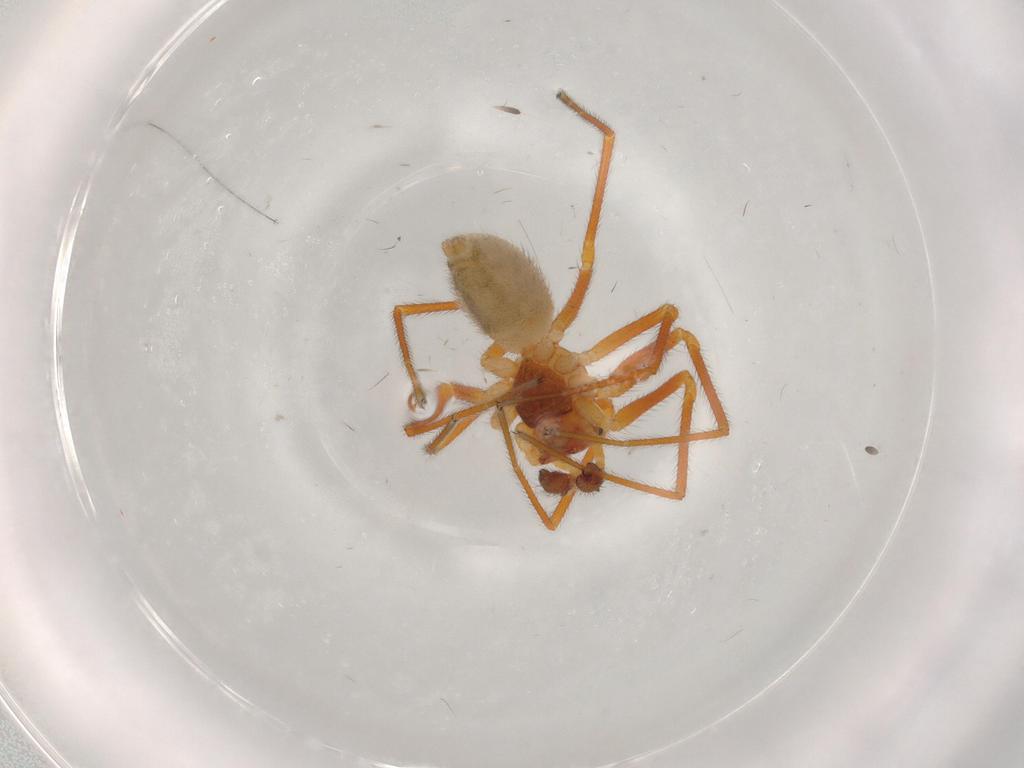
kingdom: Animalia
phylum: Arthropoda
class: Arachnida
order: Araneae
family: Linyphiidae
